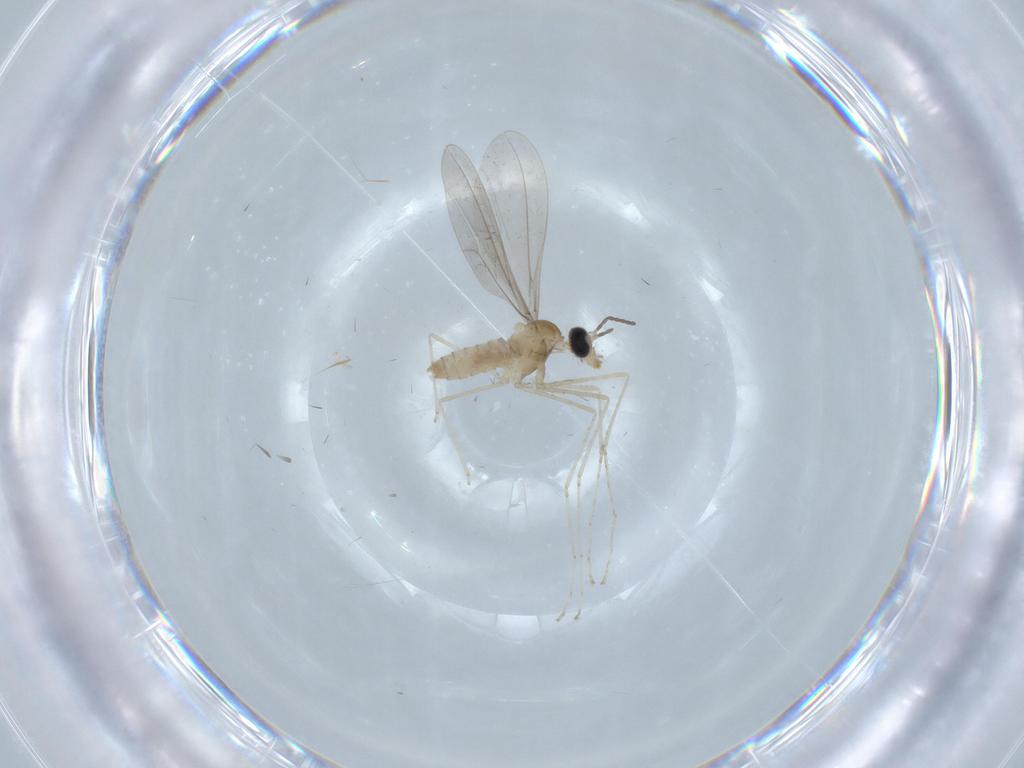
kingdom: Animalia
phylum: Arthropoda
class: Insecta
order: Diptera
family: Cecidomyiidae
